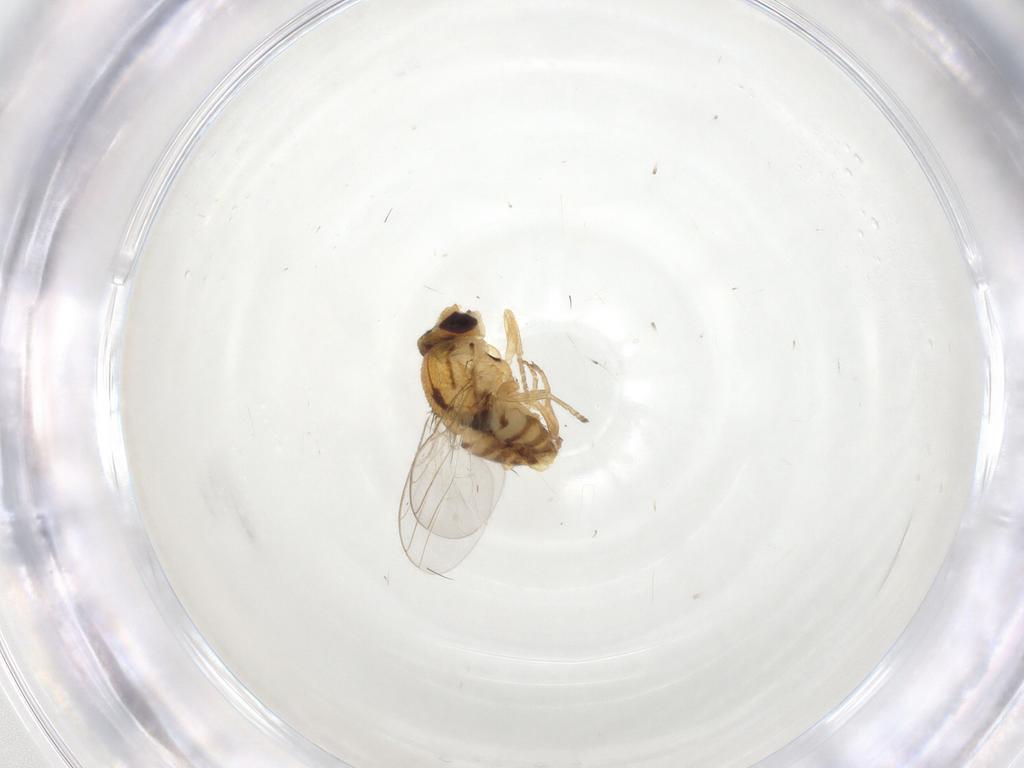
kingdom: Animalia
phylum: Arthropoda
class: Insecta
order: Diptera
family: Chloropidae
